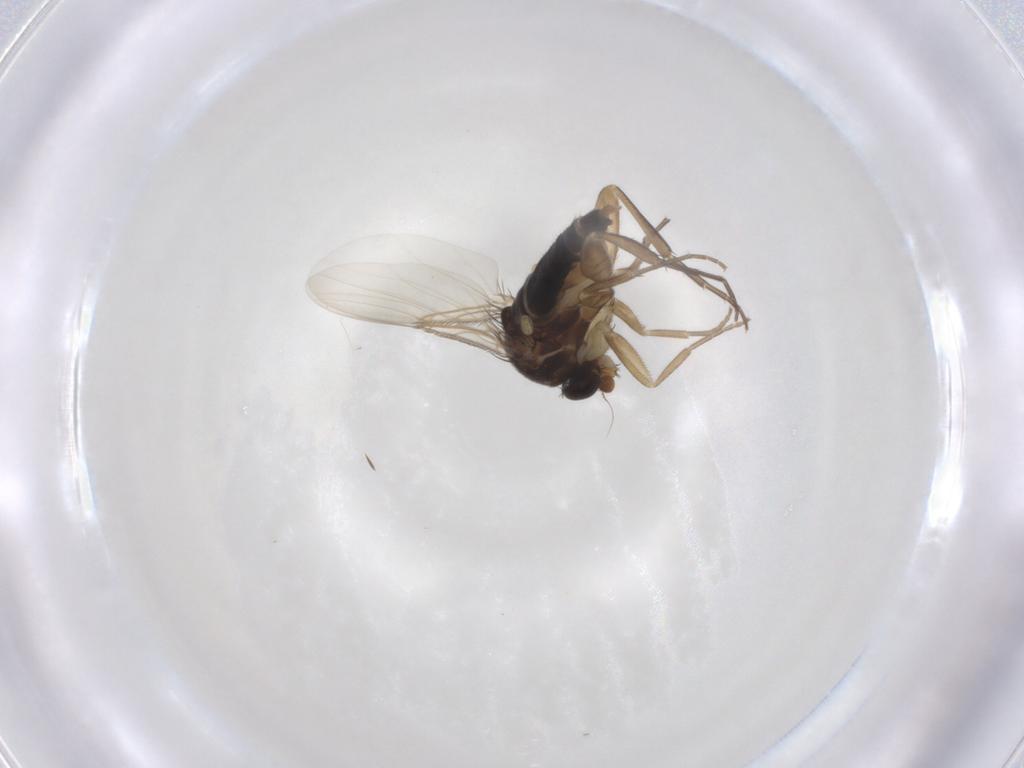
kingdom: Animalia
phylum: Arthropoda
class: Insecta
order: Diptera
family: Phoridae
